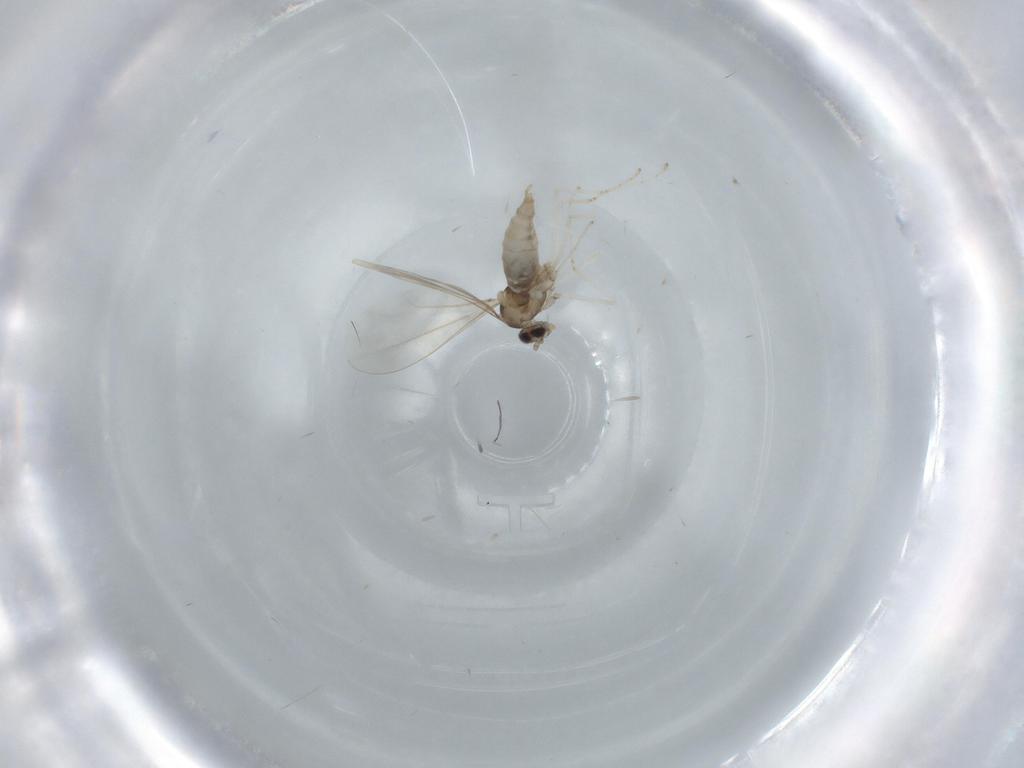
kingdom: Animalia
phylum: Arthropoda
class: Insecta
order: Diptera
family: Cecidomyiidae
